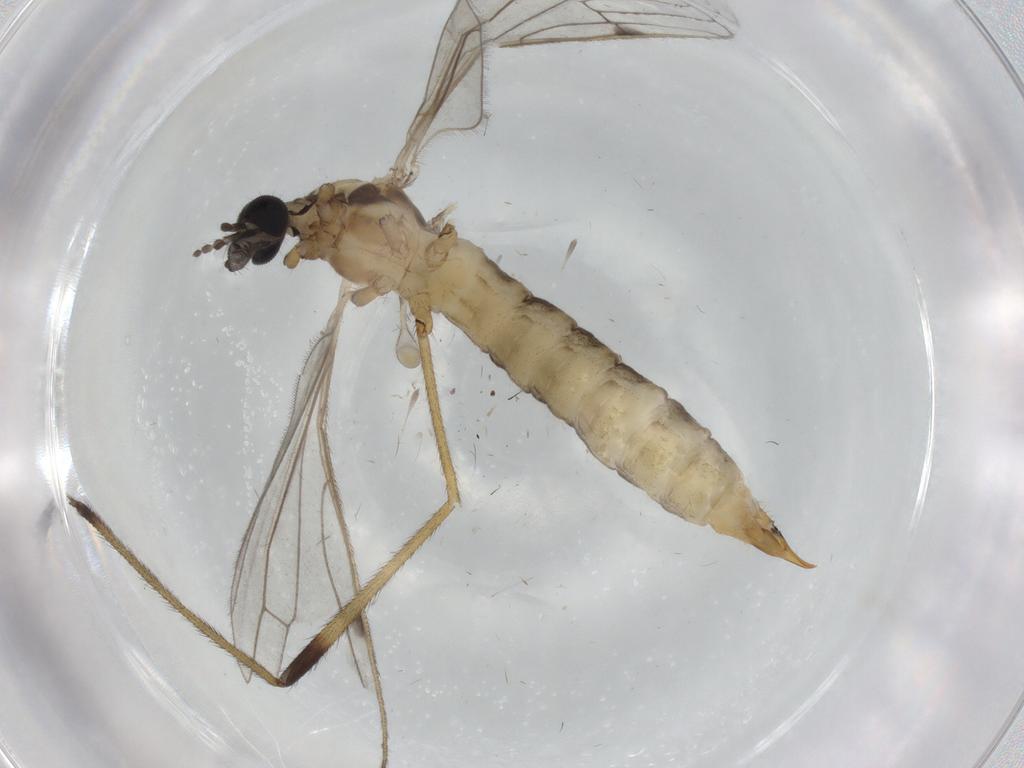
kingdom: Animalia
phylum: Arthropoda
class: Insecta
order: Diptera
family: Limoniidae
